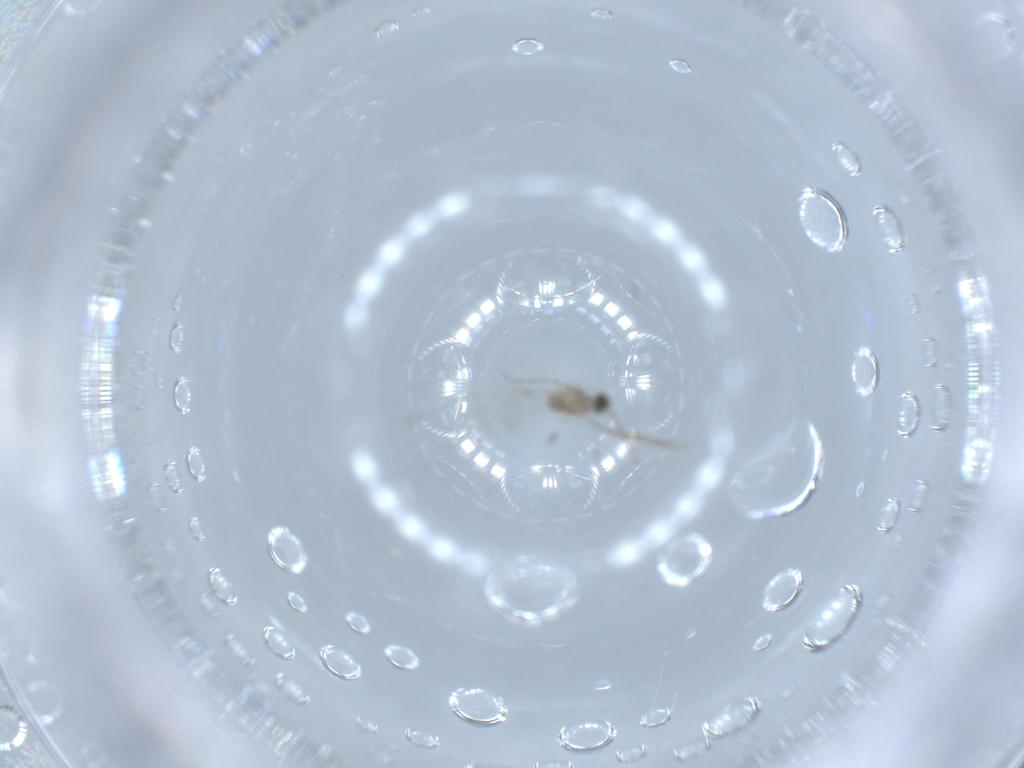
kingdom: Animalia
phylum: Arthropoda
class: Insecta
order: Diptera
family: Cecidomyiidae
